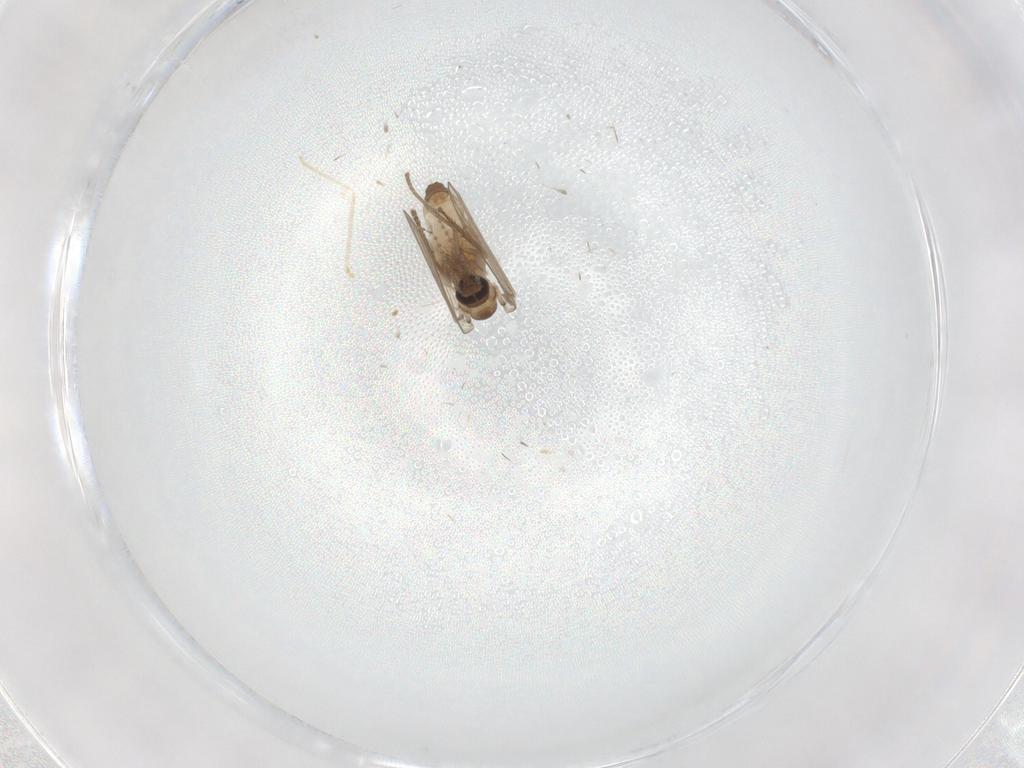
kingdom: Animalia
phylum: Arthropoda
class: Insecta
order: Diptera
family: Psychodidae
